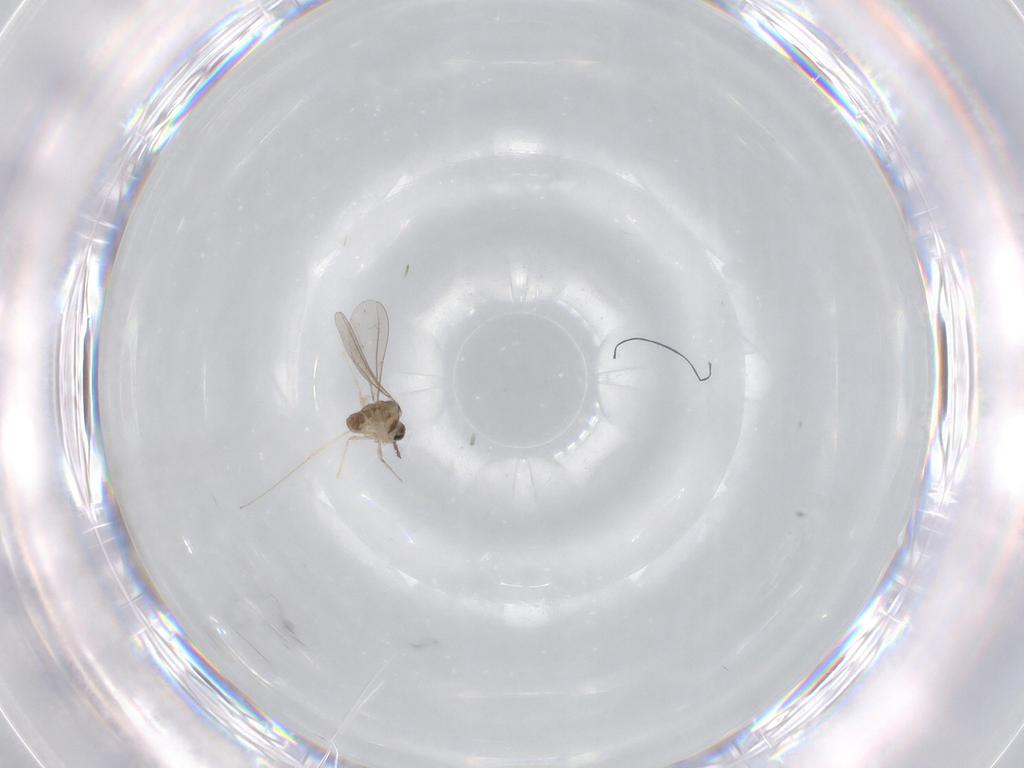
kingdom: Animalia
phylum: Arthropoda
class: Insecta
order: Diptera
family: Cecidomyiidae
